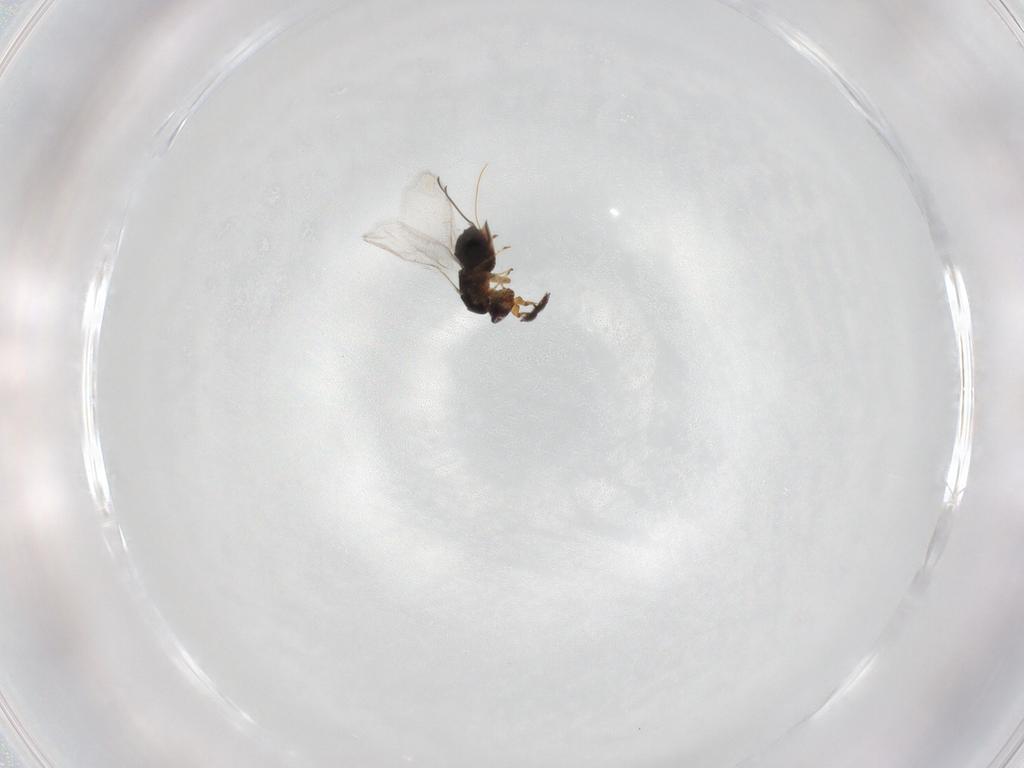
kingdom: Animalia
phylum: Arthropoda
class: Insecta
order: Hymenoptera
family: Agaonidae
